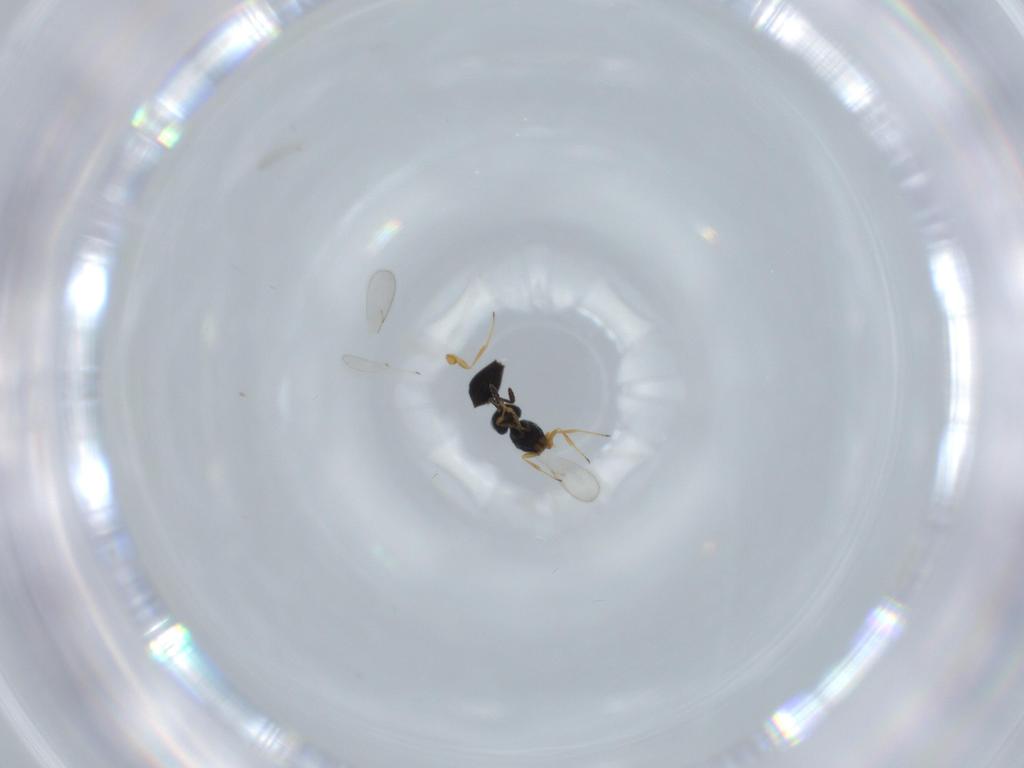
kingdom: Animalia
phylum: Arthropoda
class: Insecta
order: Hymenoptera
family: Scelionidae
